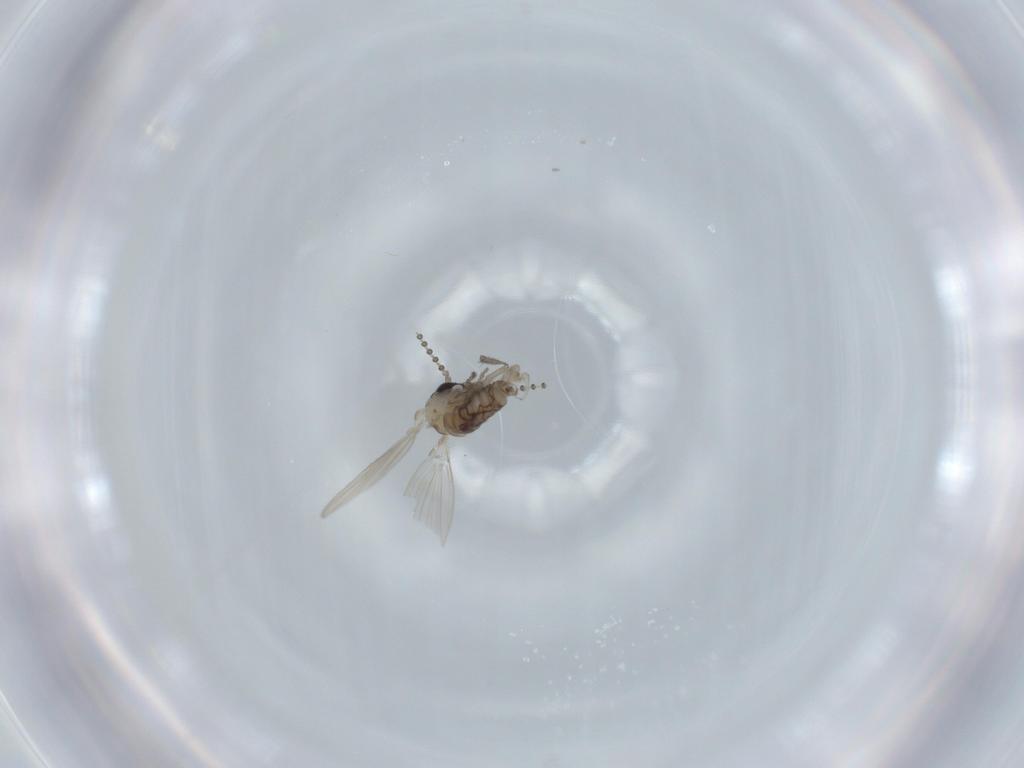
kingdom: Animalia
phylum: Arthropoda
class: Insecta
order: Diptera
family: Psychodidae
